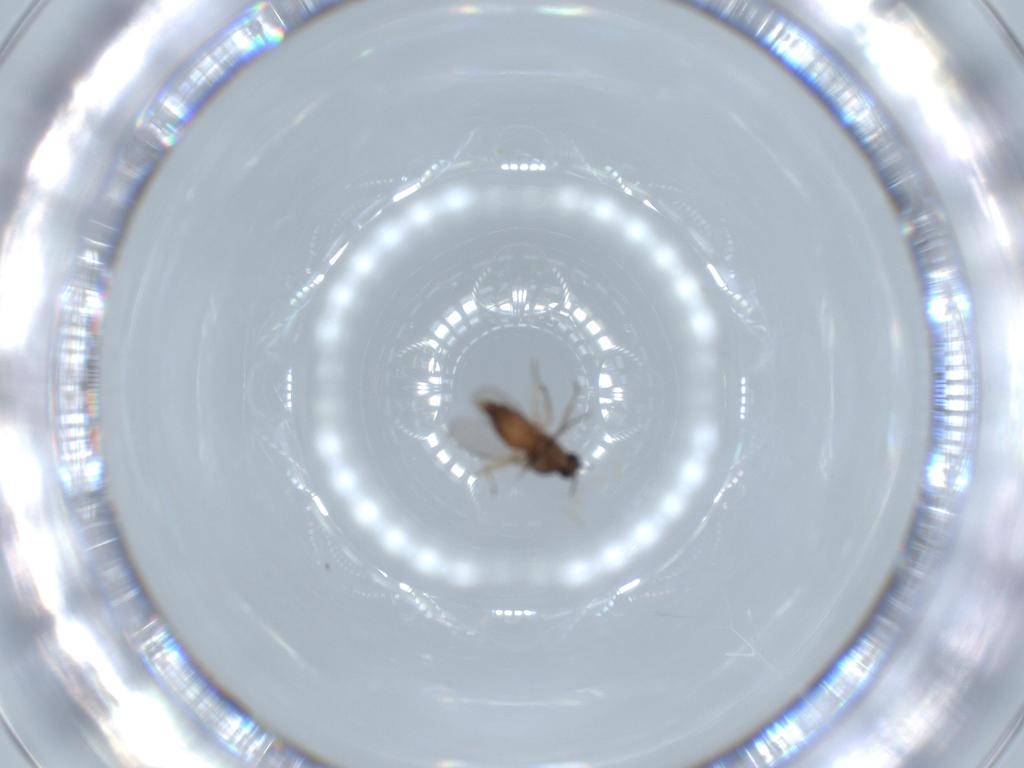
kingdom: Animalia
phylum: Arthropoda
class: Insecta
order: Diptera
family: Ceratopogonidae
